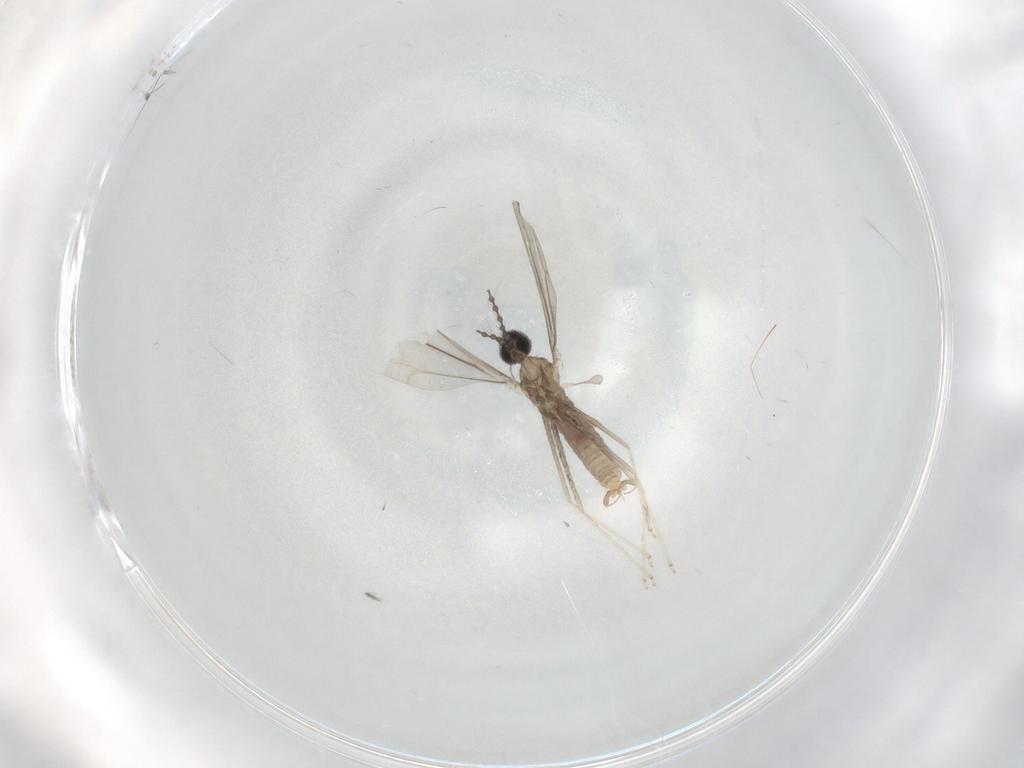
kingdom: Animalia
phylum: Arthropoda
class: Insecta
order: Diptera
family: Cecidomyiidae
